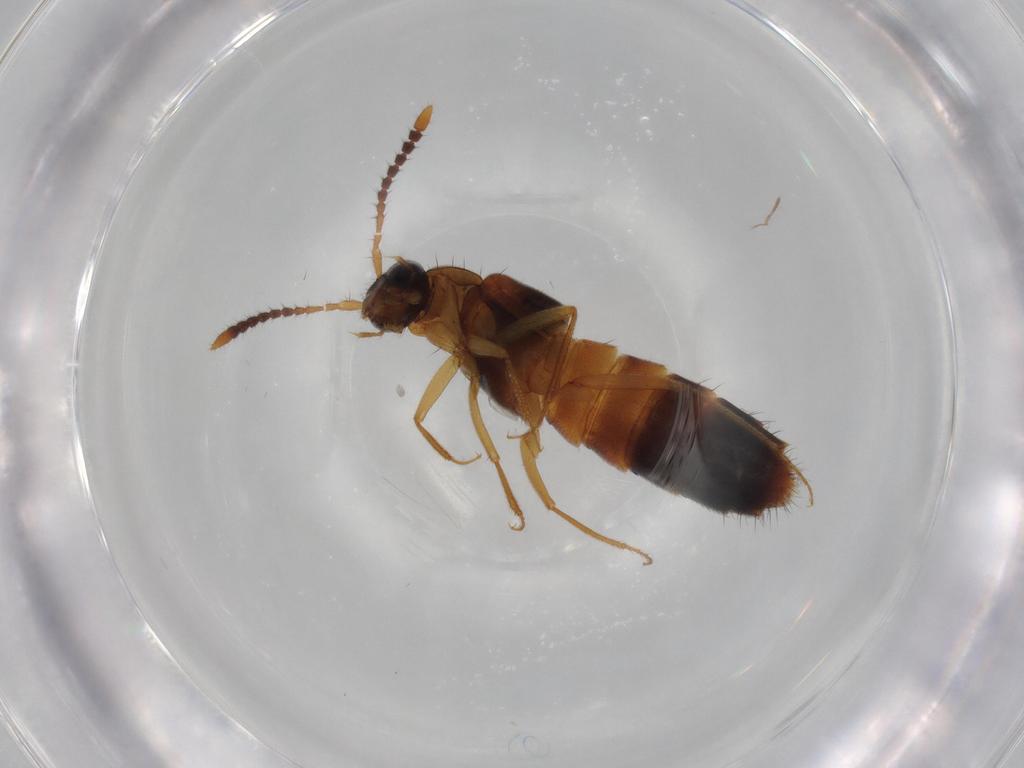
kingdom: Animalia
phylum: Arthropoda
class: Insecta
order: Coleoptera
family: Staphylinidae
